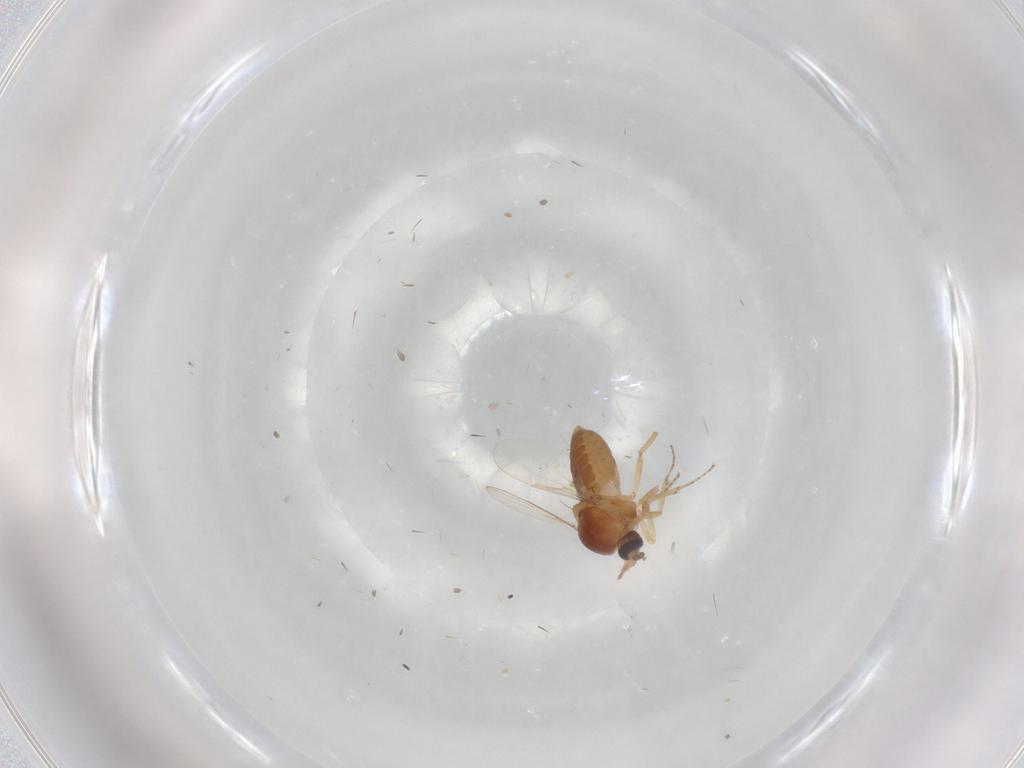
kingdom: Animalia
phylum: Arthropoda
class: Insecta
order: Diptera
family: Ceratopogonidae
